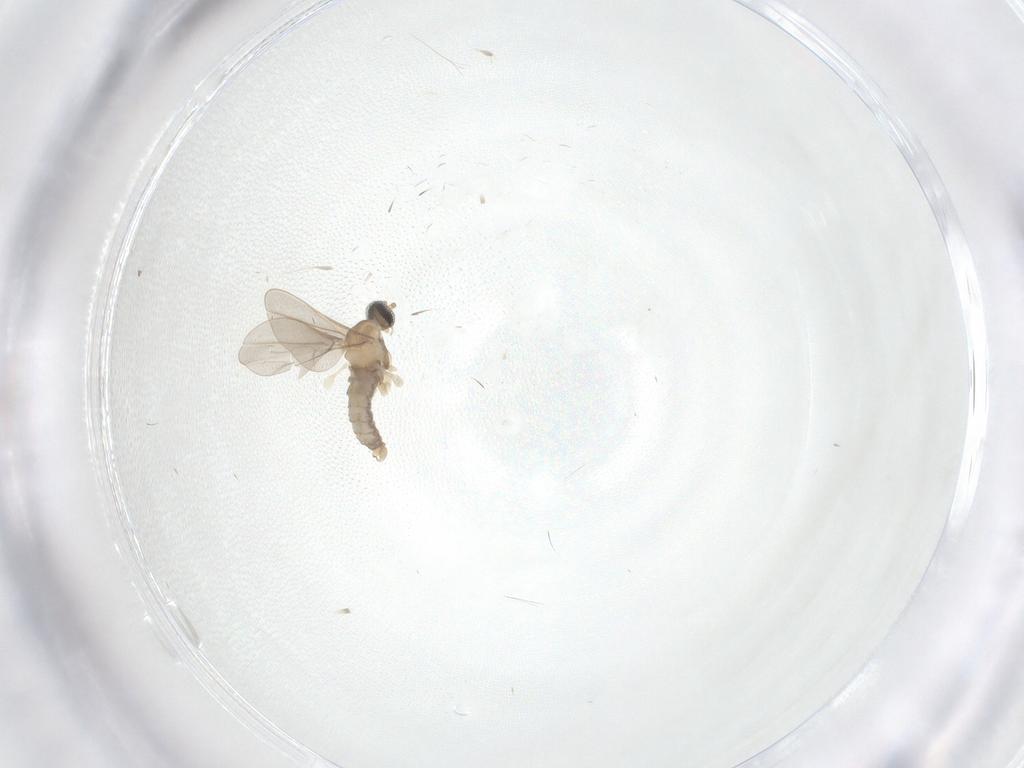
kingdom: Animalia
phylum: Arthropoda
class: Insecta
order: Diptera
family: Cecidomyiidae
